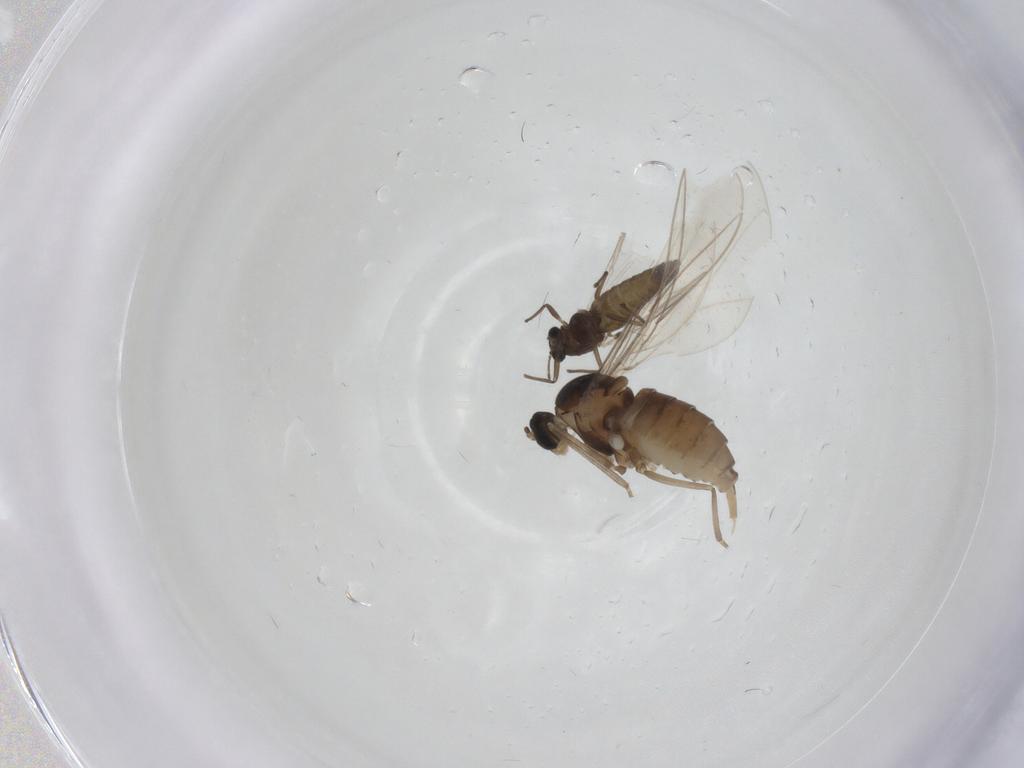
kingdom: Animalia
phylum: Arthropoda
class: Insecta
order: Diptera
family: Chironomidae
